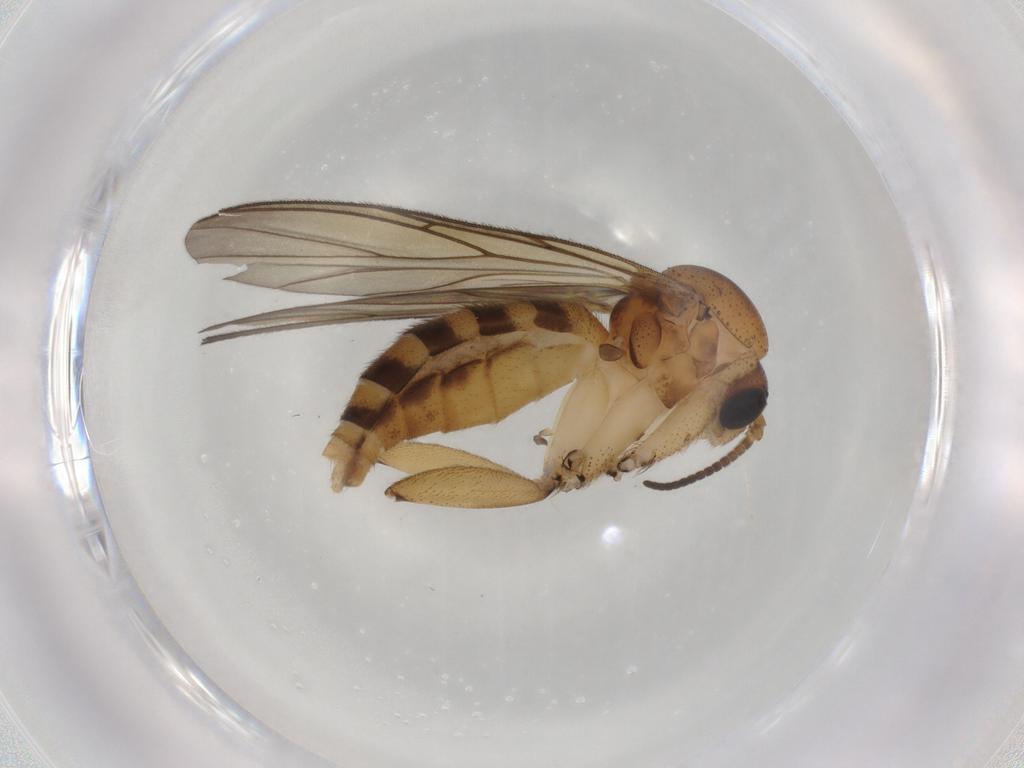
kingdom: Animalia
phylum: Arthropoda
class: Insecta
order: Diptera
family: Mycetophilidae
